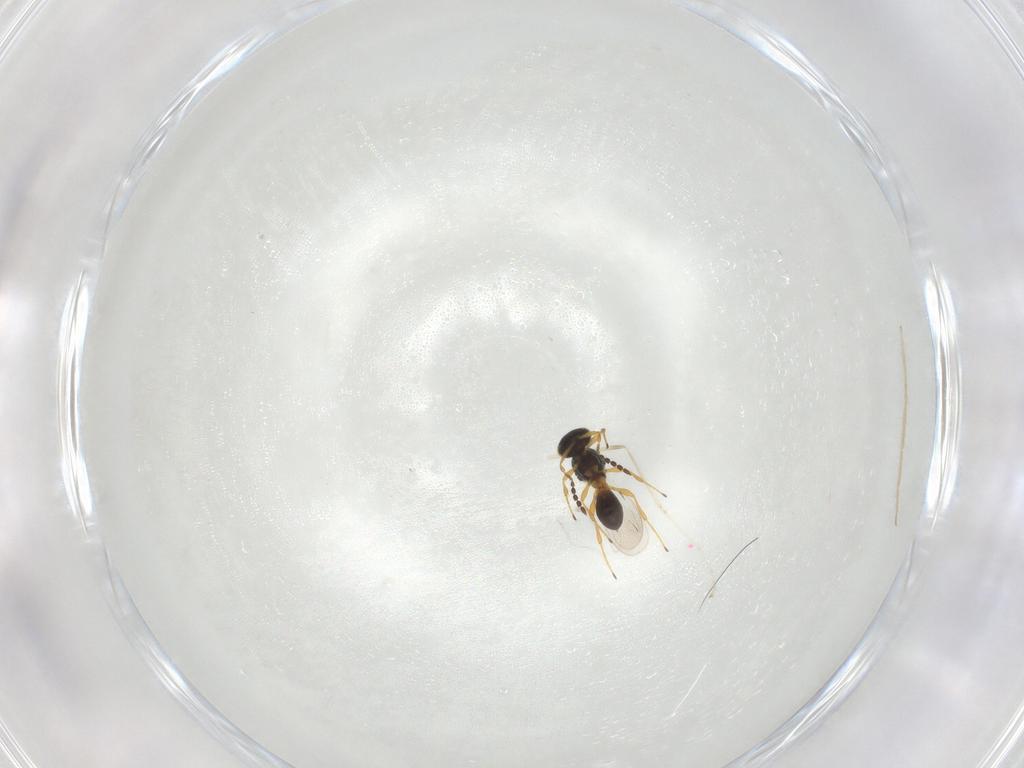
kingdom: Animalia
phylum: Arthropoda
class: Insecta
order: Hymenoptera
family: Platygastridae
